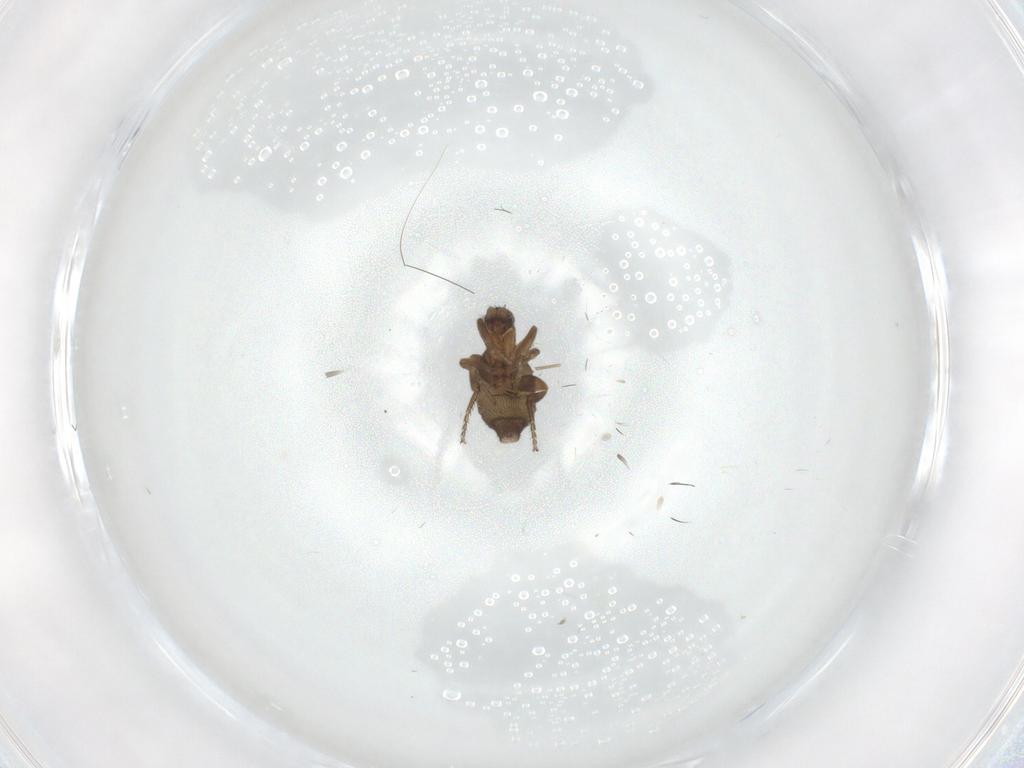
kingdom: Animalia
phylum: Arthropoda
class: Insecta
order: Diptera
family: Phoridae
